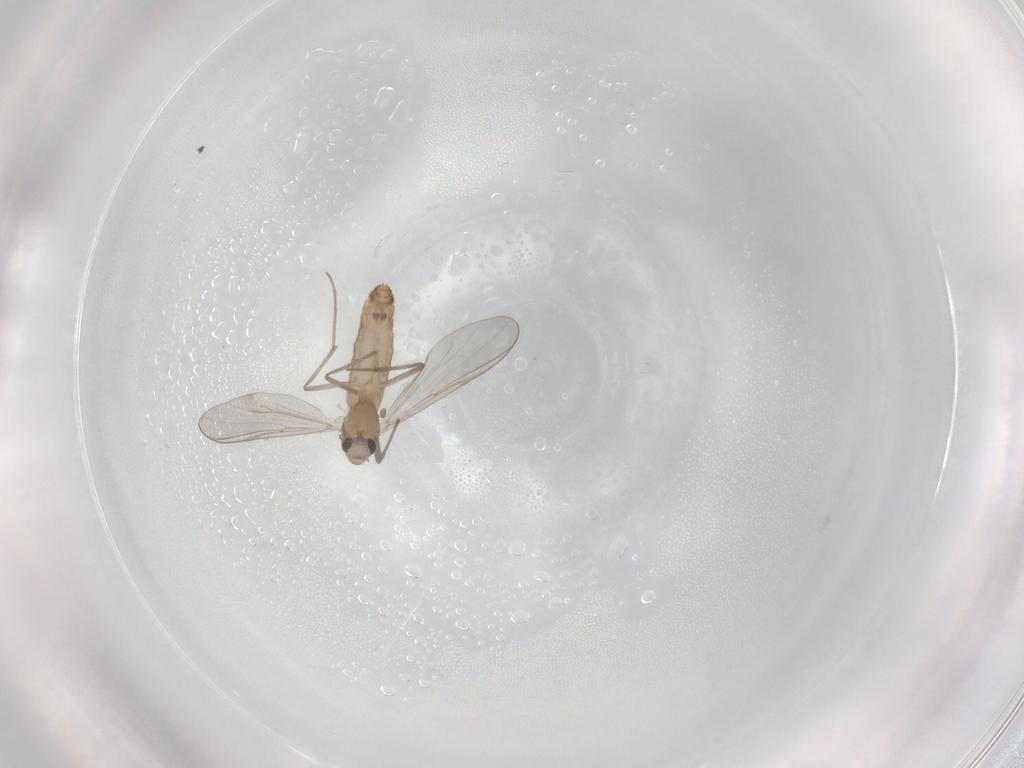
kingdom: Animalia
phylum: Arthropoda
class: Insecta
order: Diptera
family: Chironomidae
